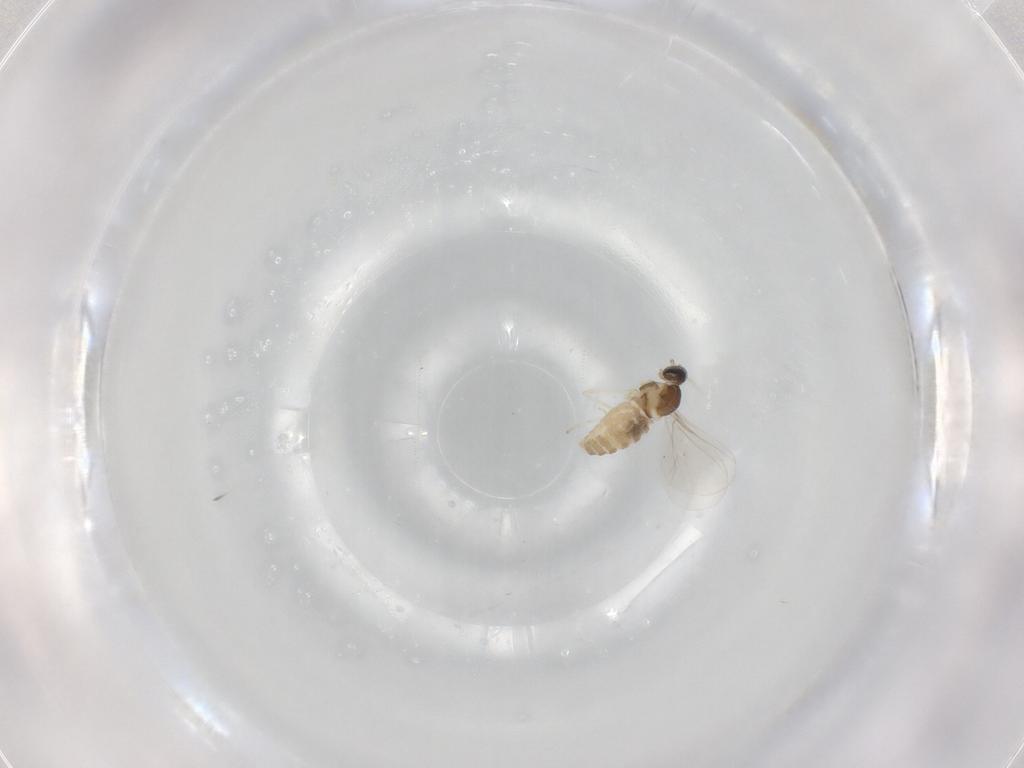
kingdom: Animalia
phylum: Arthropoda
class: Insecta
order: Diptera
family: Cecidomyiidae
